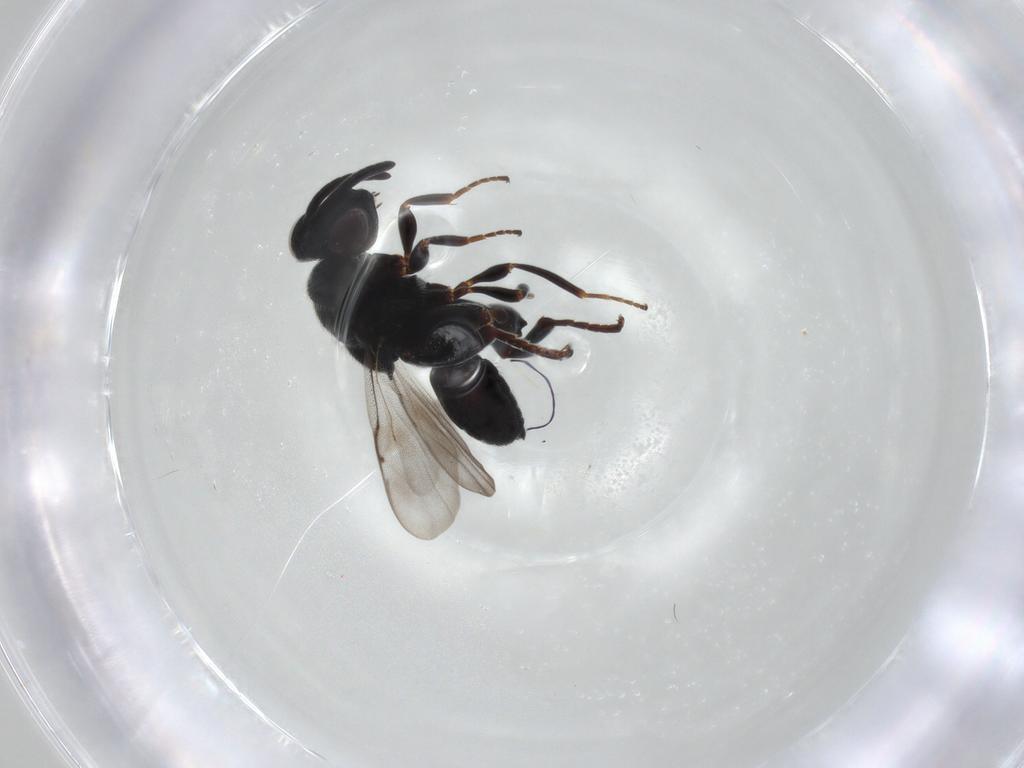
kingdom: Animalia
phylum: Arthropoda
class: Insecta
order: Hymenoptera
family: Chalcididae
